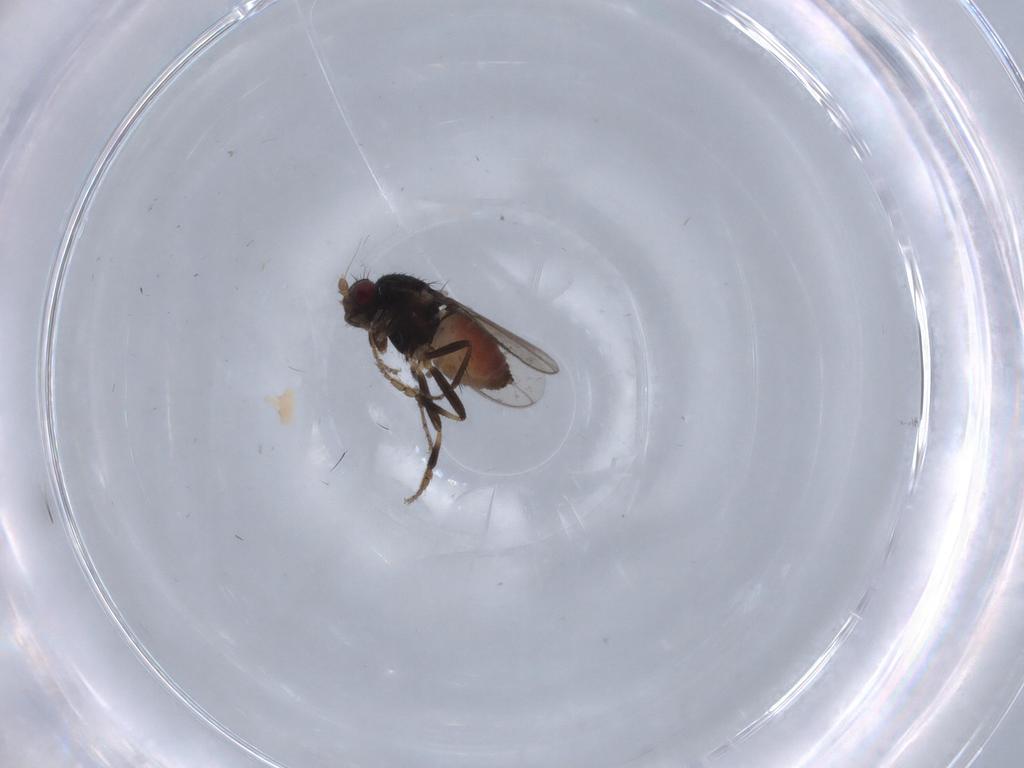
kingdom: Animalia
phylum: Arthropoda
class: Insecta
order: Diptera
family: Sphaeroceridae
